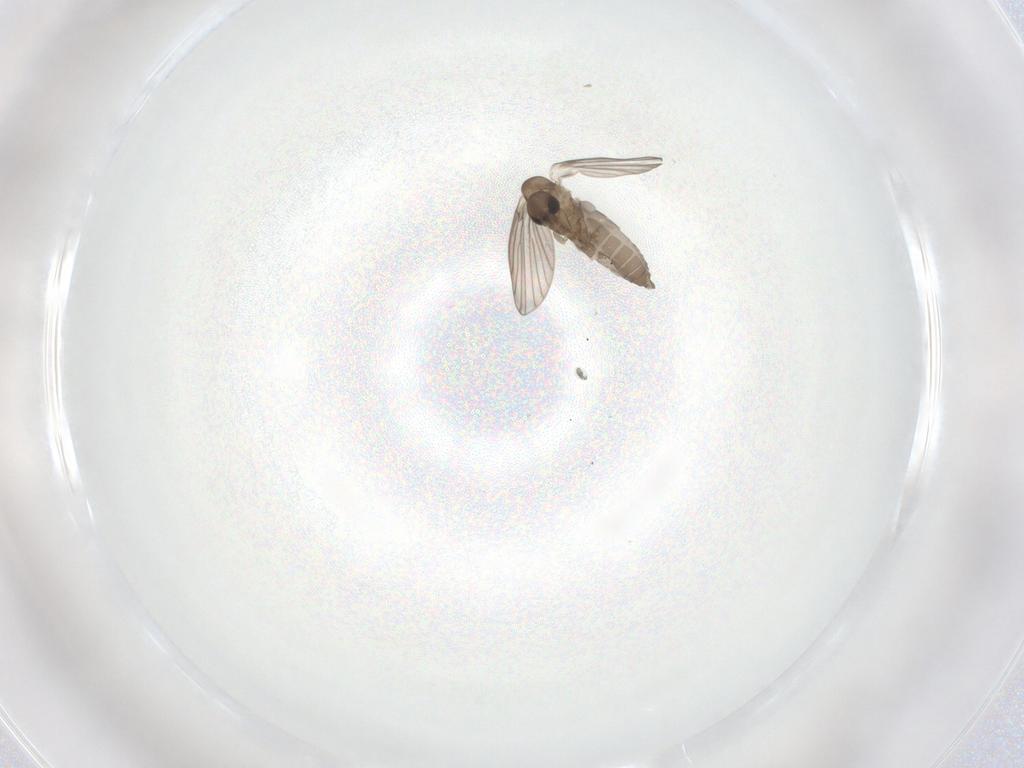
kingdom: Animalia
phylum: Arthropoda
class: Insecta
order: Diptera
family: Cecidomyiidae
